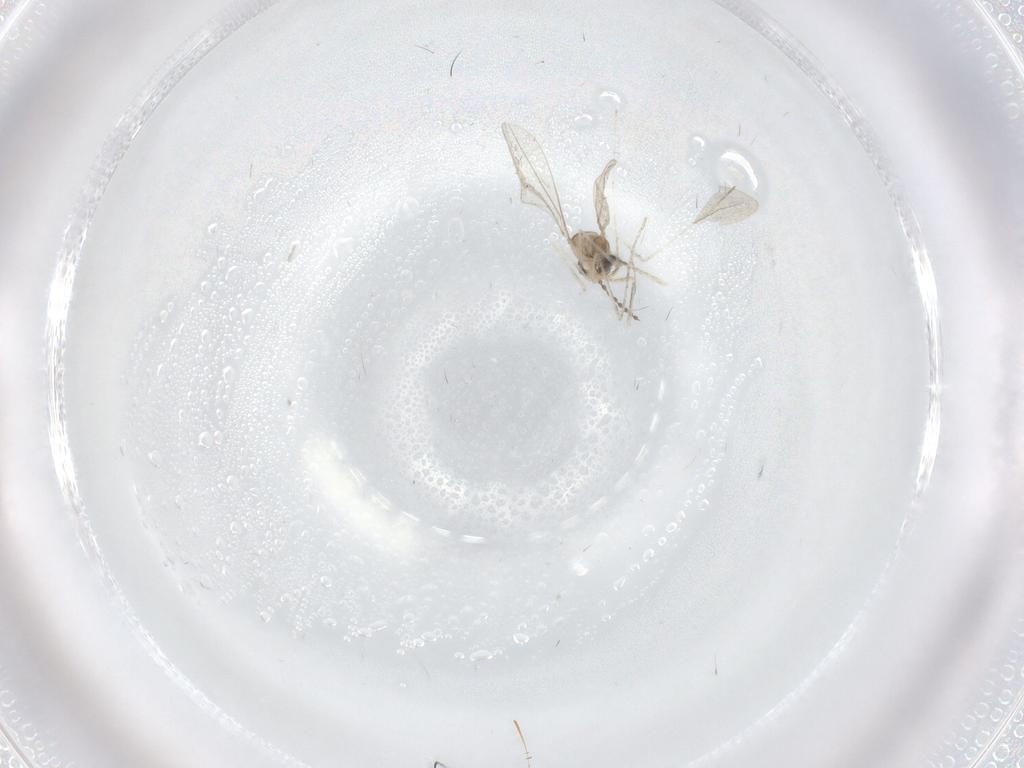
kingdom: Animalia
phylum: Arthropoda
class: Insecta
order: Diptera
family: Cecidomyiidae
